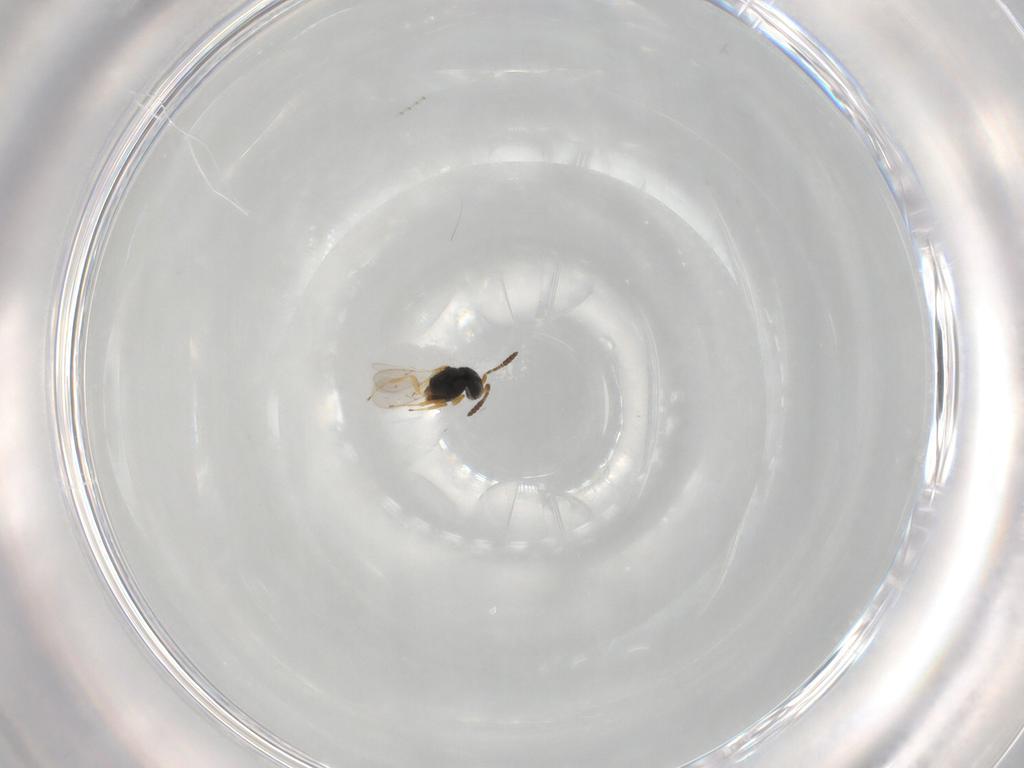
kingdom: Animalia
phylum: Arthropoda
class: Insecta
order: Hymenoptera
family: Scelionidae
